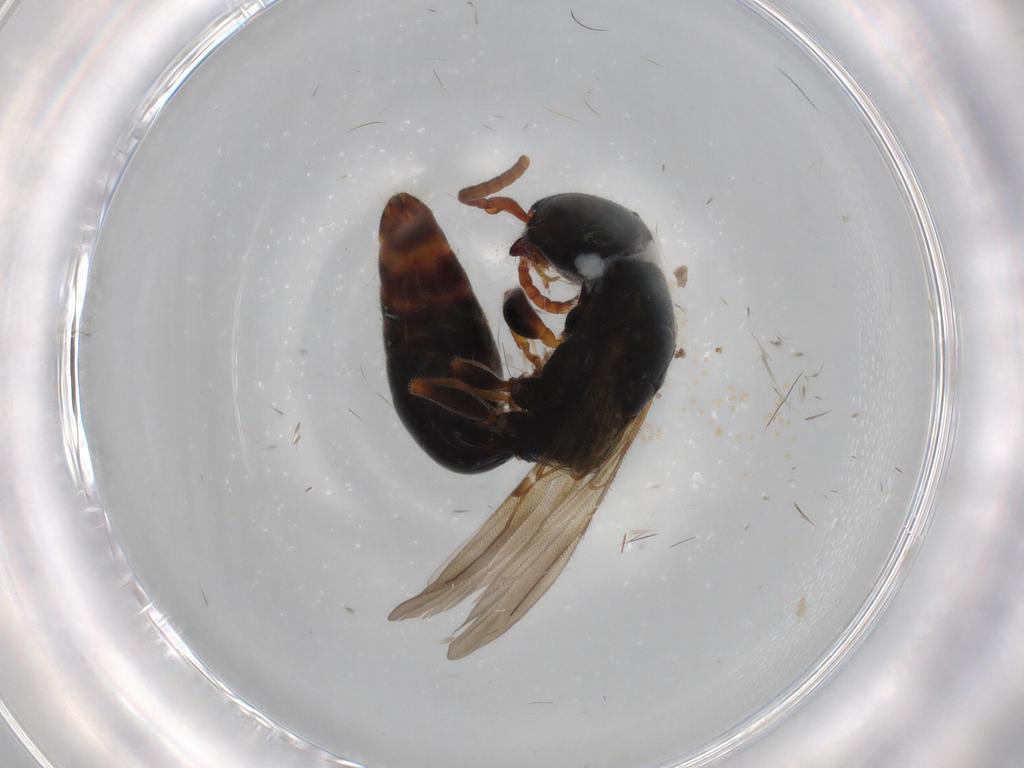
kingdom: Animalia
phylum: Arthropoda
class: Insecta
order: Hymenoptera
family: Bethylidae
